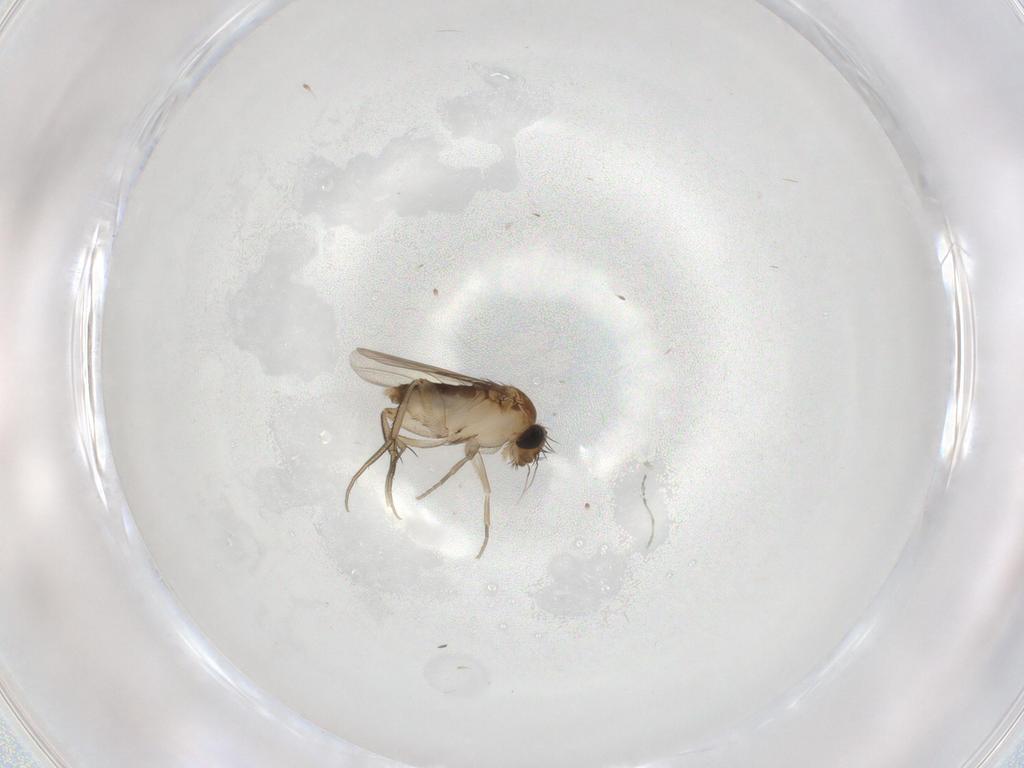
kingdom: Animalia
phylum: Arthropoda
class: Insecta
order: Diptera
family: Phoridae
